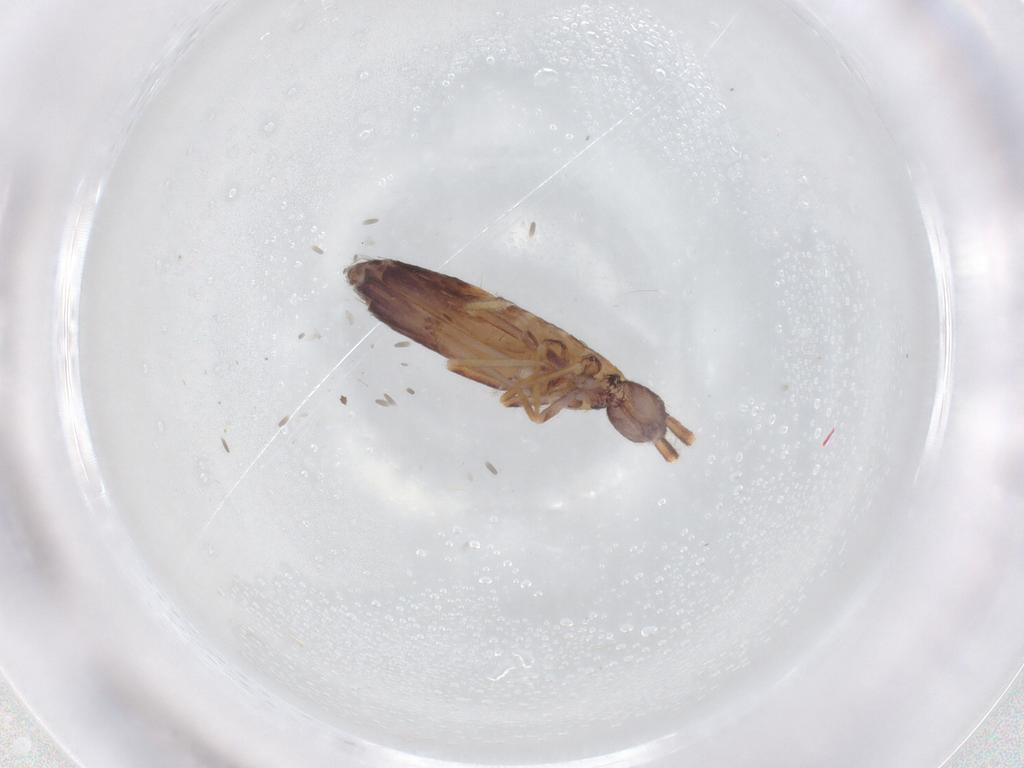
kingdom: Animalia
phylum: Arthropoda
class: Collembola
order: Entomobryomorpha
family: Entomobryidae
